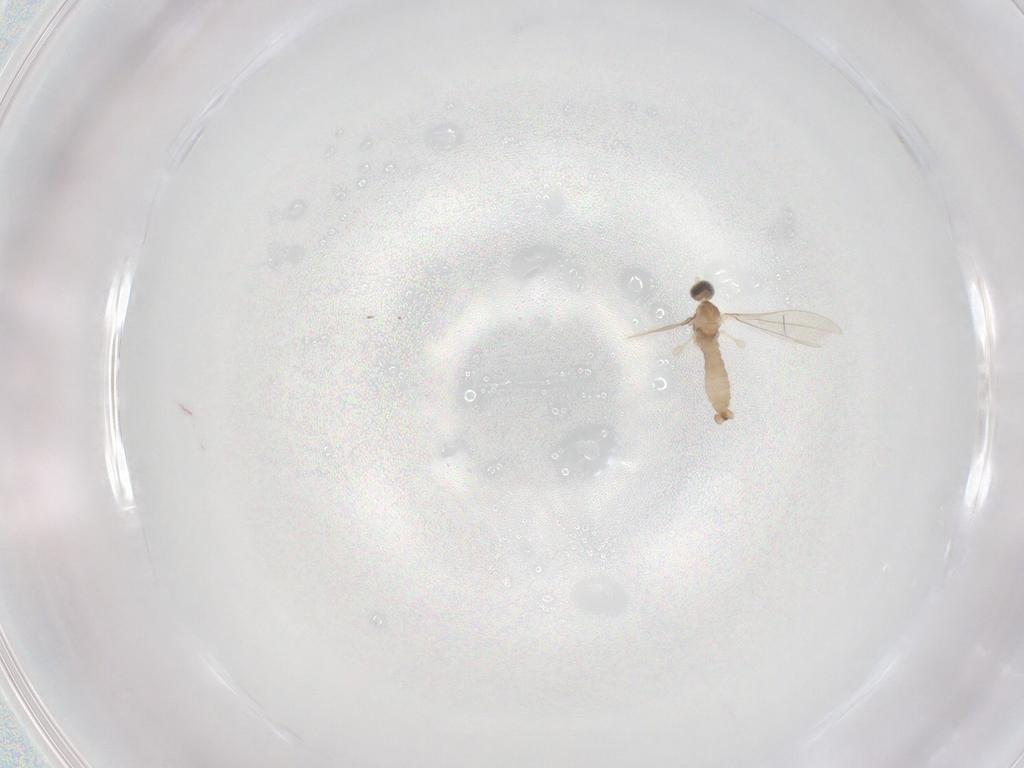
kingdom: Animalia
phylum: Arthropoda
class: Insecta
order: Diptera
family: Cecidomyiidae
